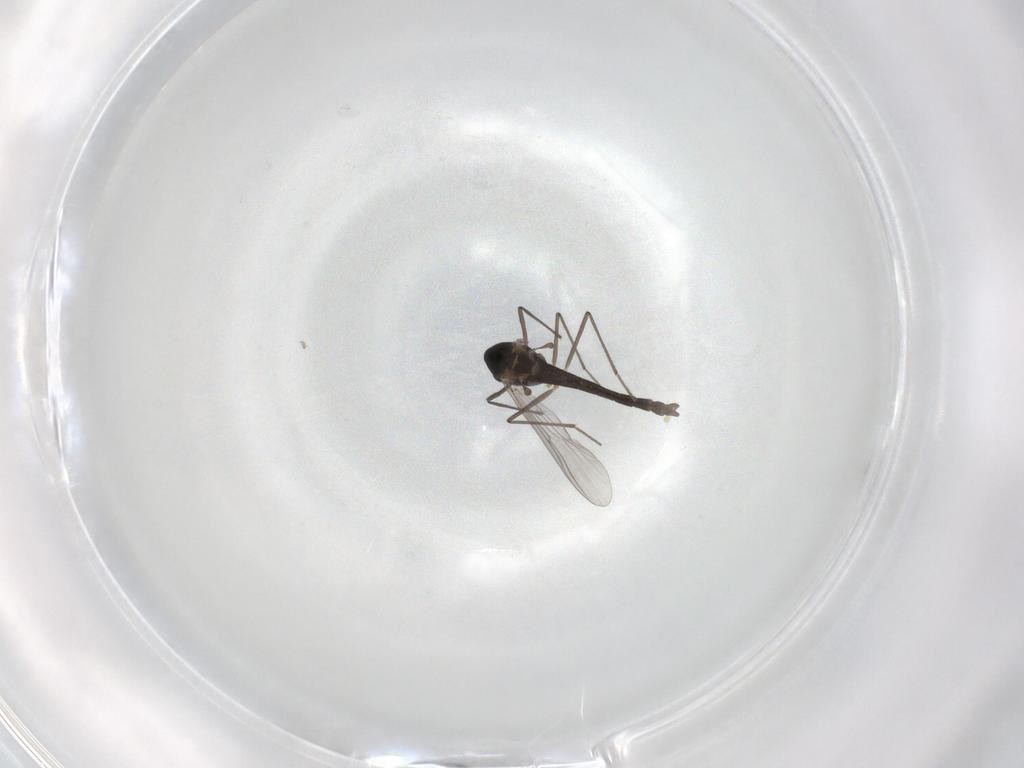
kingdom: Animalia
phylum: Arthropoda
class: Insecta
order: Diptera
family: Chironomidae
